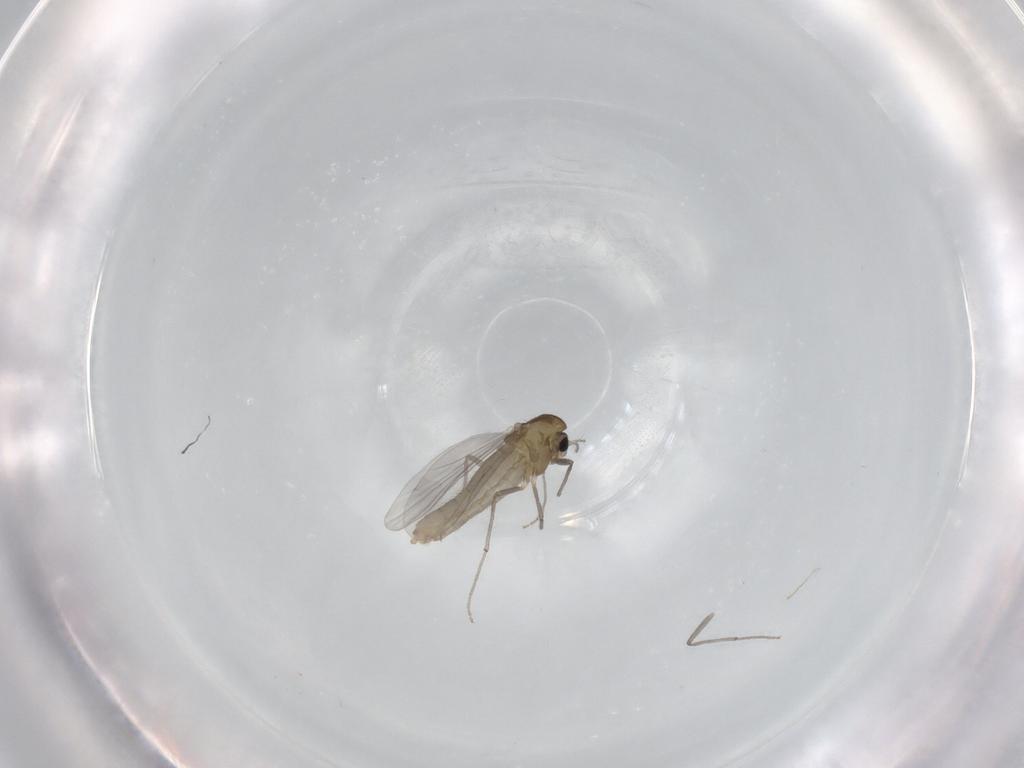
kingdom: Animalia
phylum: Arthropoda
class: Insecta
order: Diptera
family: Chironomidae
